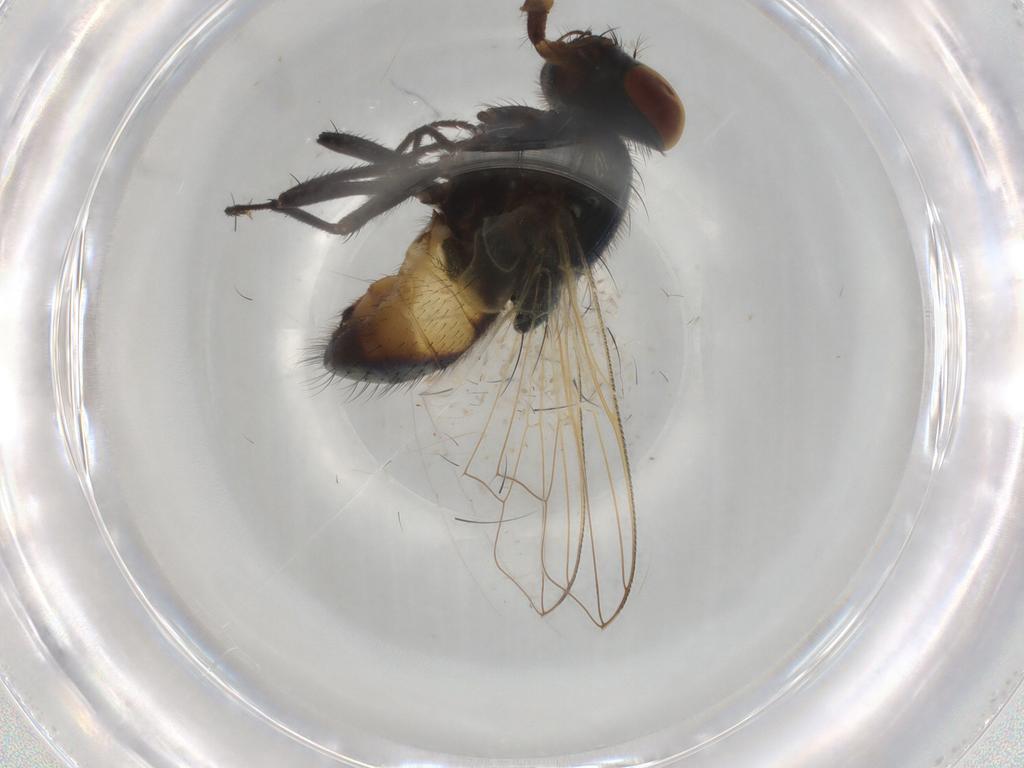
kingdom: Animalia
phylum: Arthropoda
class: Insecta
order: Diptera
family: Muscidae
